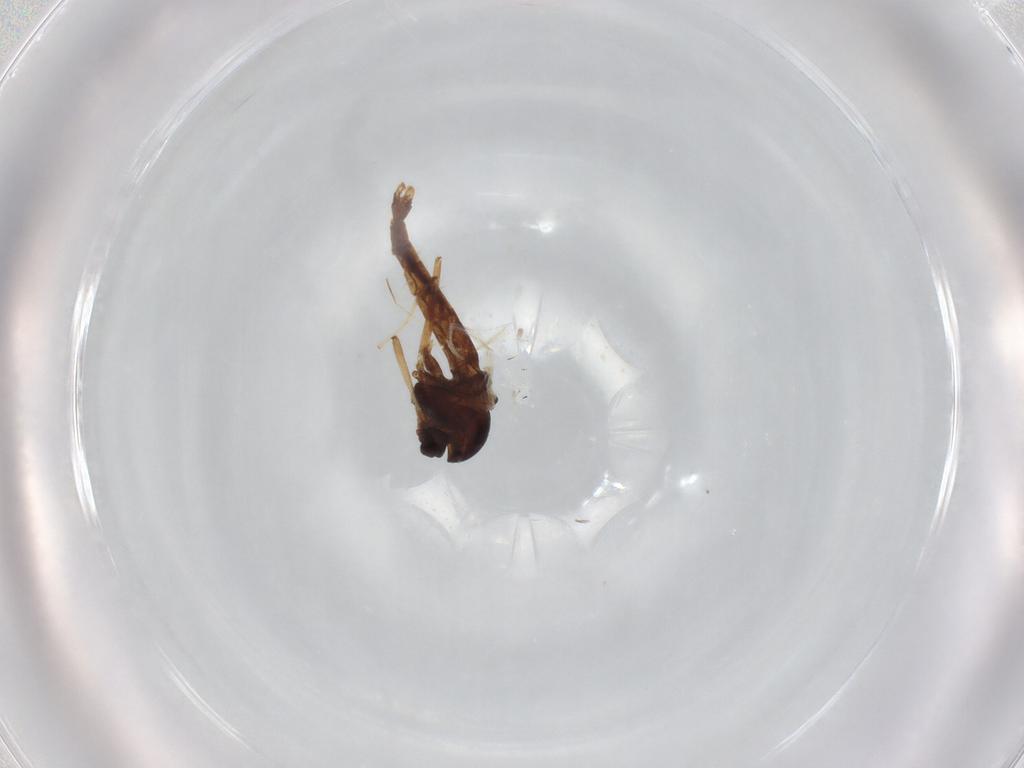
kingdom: Animalia
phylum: Arthropoda
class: Insecta
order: Diptera
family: Chironomidae
